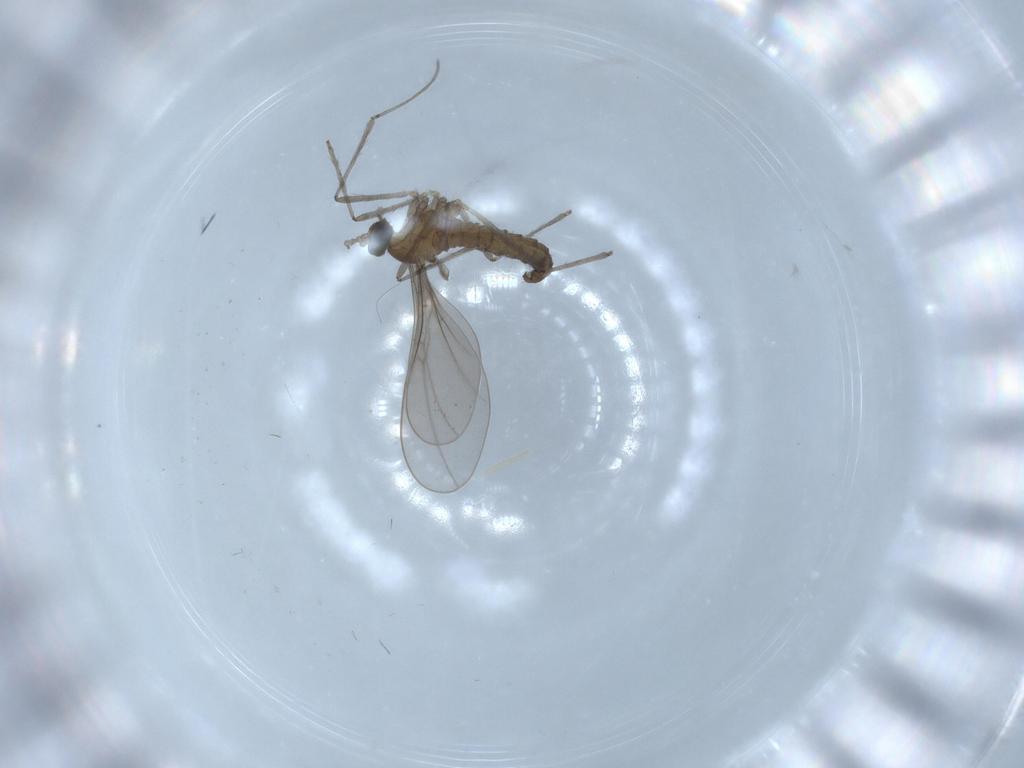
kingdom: Animalia
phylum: Arthropoda
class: Insecta
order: Diptera
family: Cecidomyiidae
